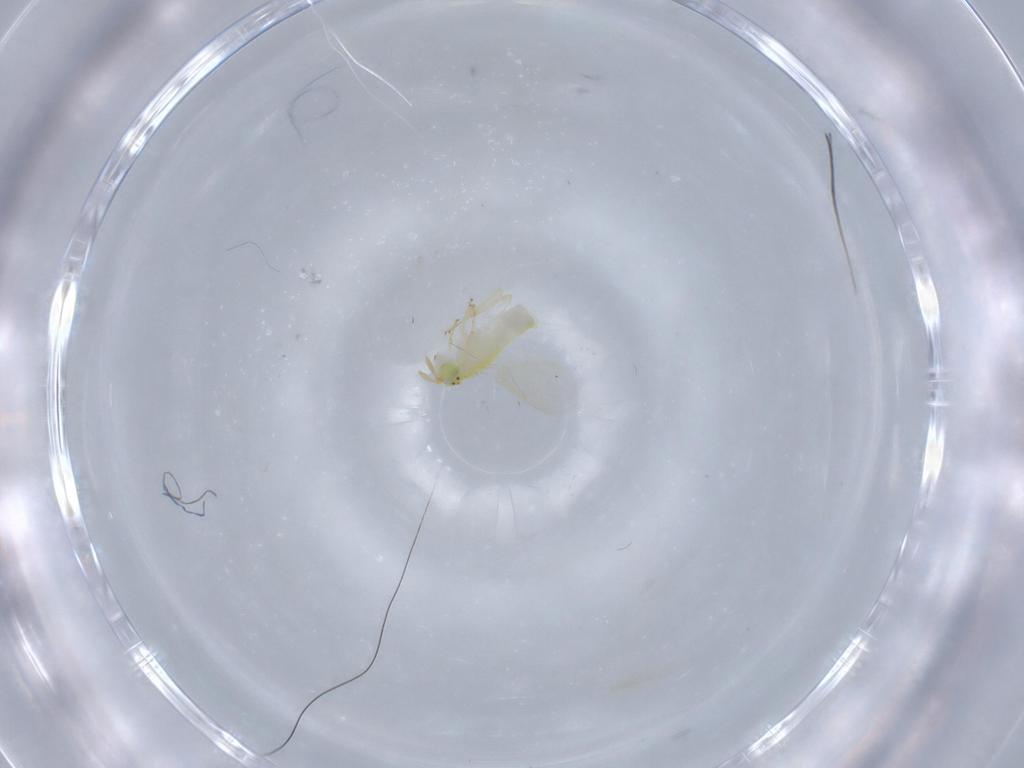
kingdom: Animalia
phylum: Arthropoda
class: Insecta
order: Hymenoptera
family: Aphelinidae
